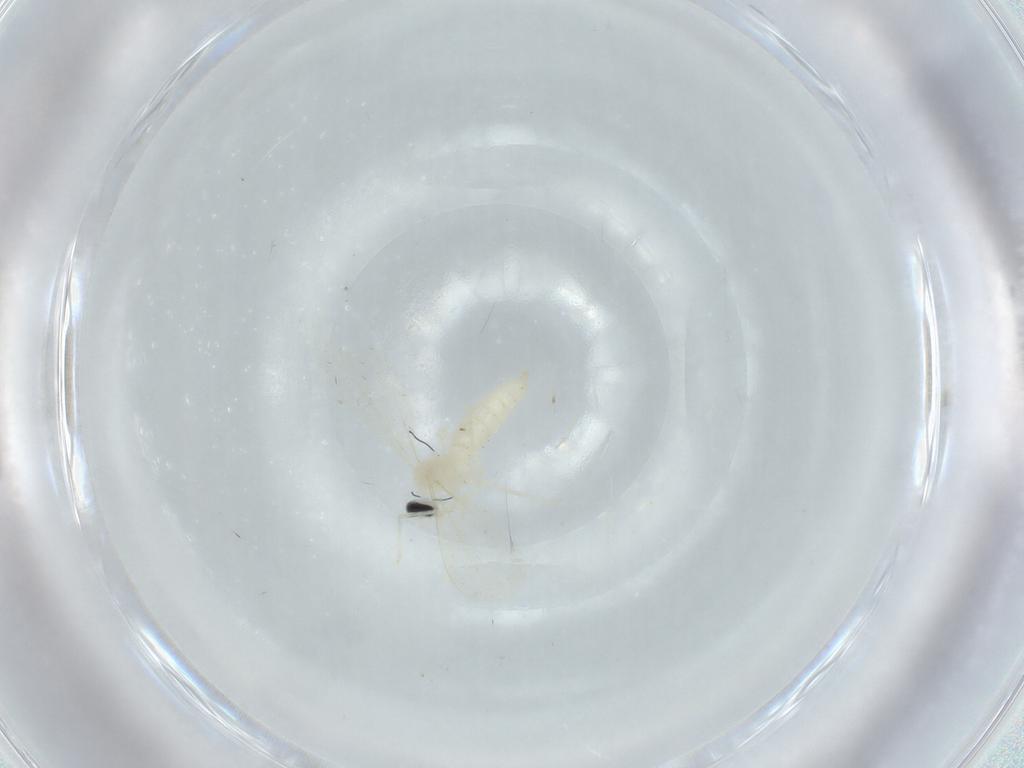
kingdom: Animalia
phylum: Arthropoda
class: Insecta
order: Diptera
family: Cecidomyiidae
